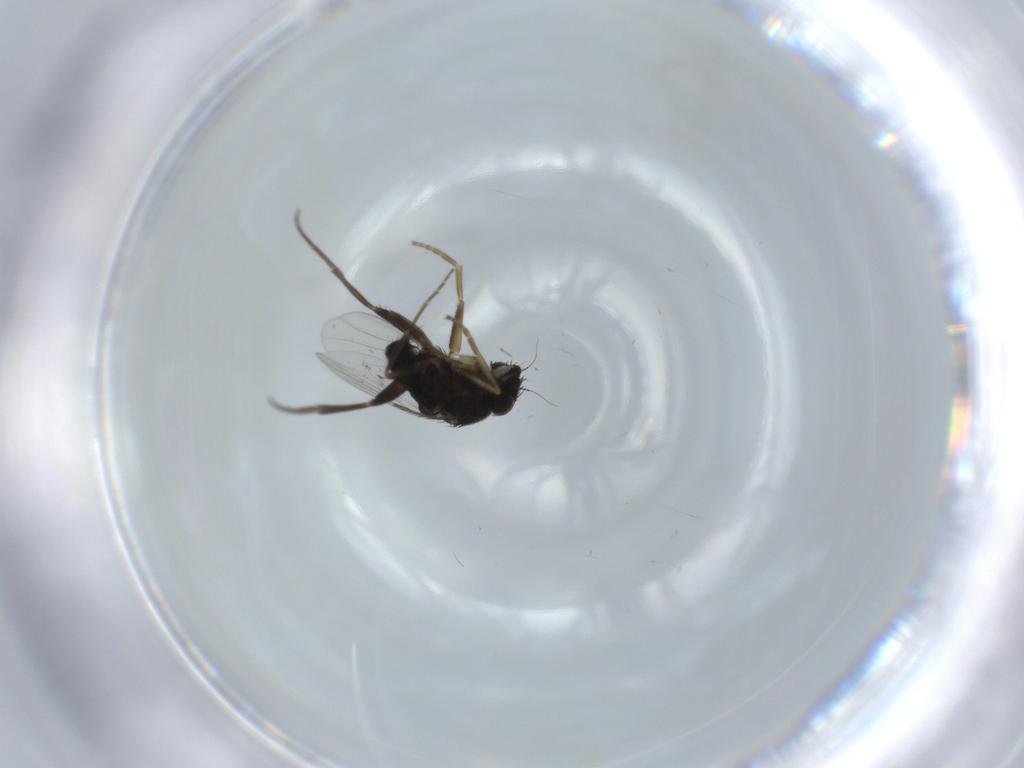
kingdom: Animalia
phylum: Arthropoda
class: Insecta
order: Diptera
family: Phoridae
